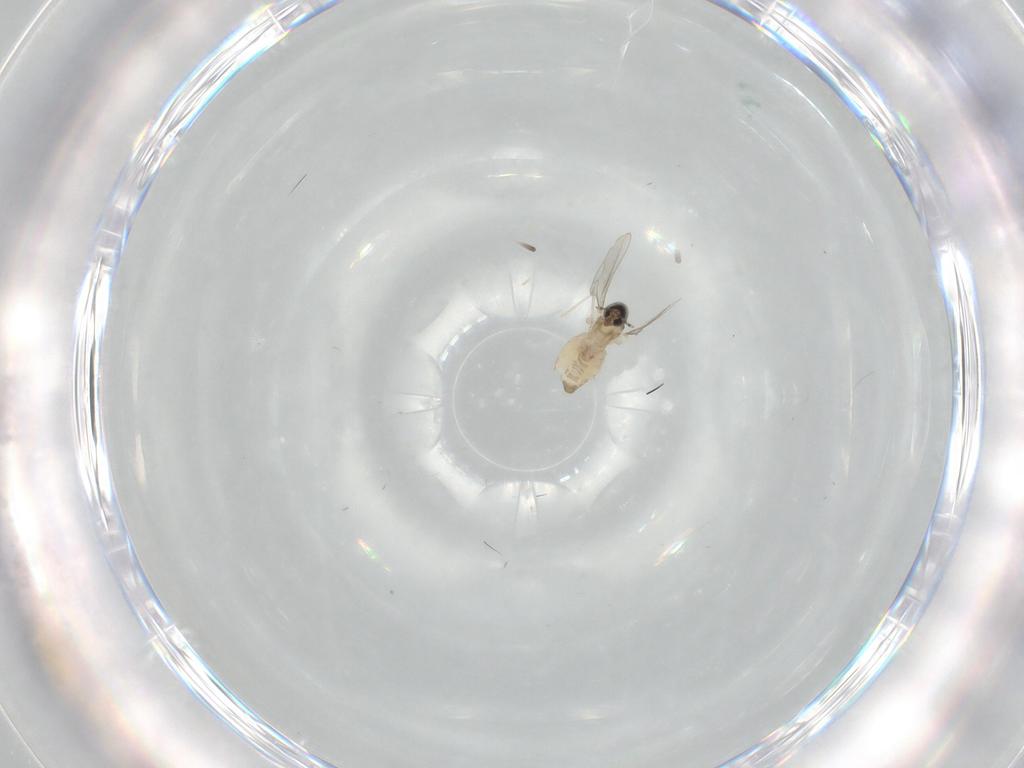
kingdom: Animalia
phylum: Arthropoda
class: Insecta
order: Diptera
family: Cecidomyiidae
